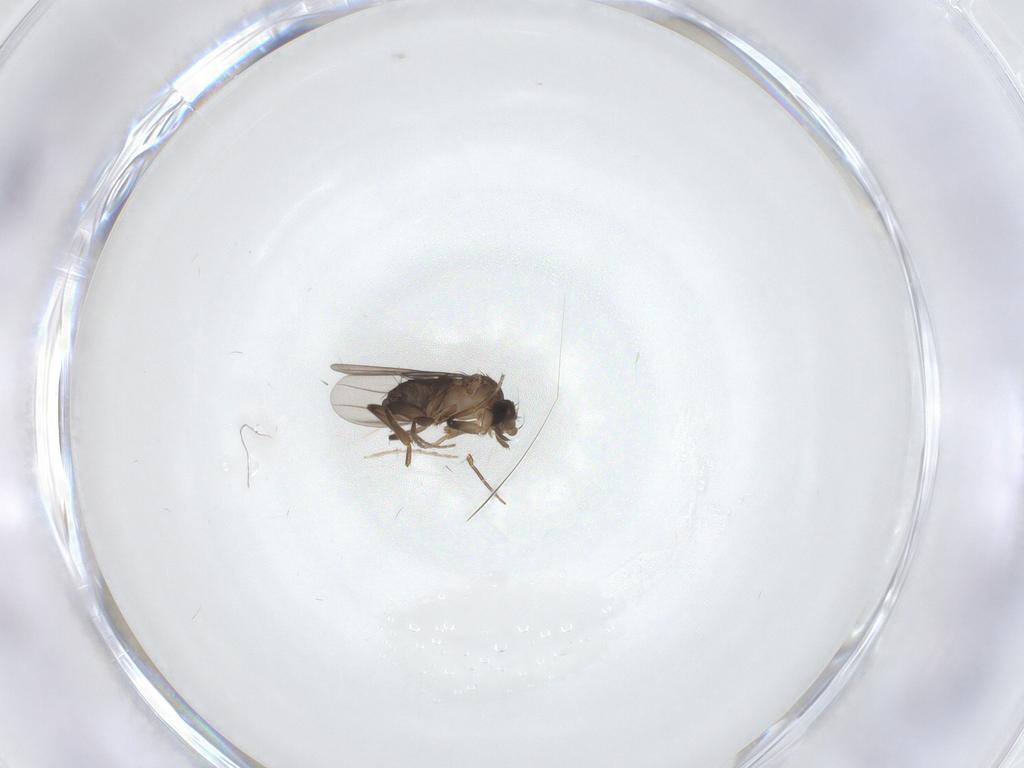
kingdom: Animalia
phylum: Arthropoda
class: Insecta
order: Diptera
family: Phoridae
